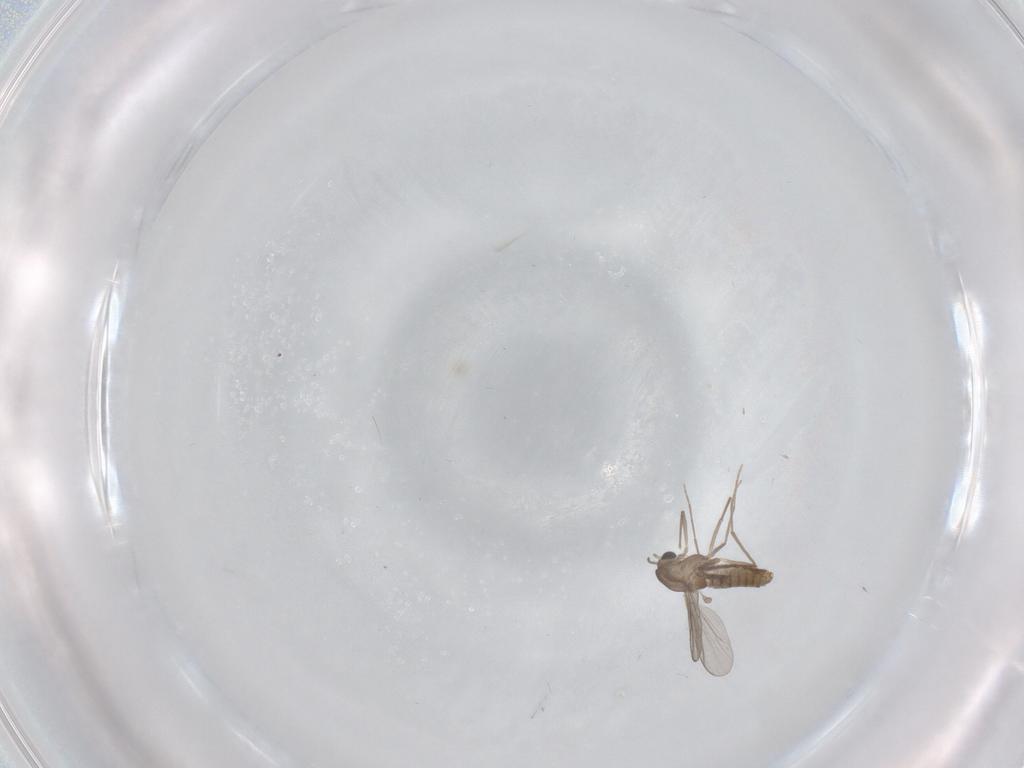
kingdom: Animalia
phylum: Arthropoda
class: Insecta
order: Diptera
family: Chironomidae
